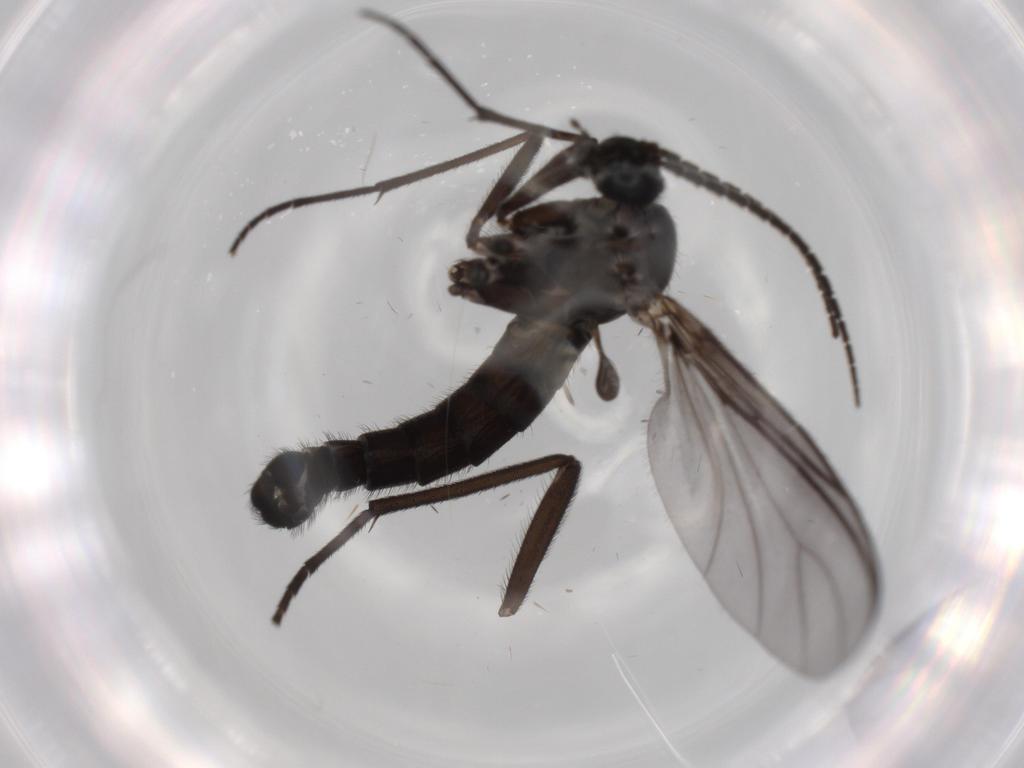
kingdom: Animalia
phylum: Arthropoda
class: Insecta
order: Diptera
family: Sciaridae
